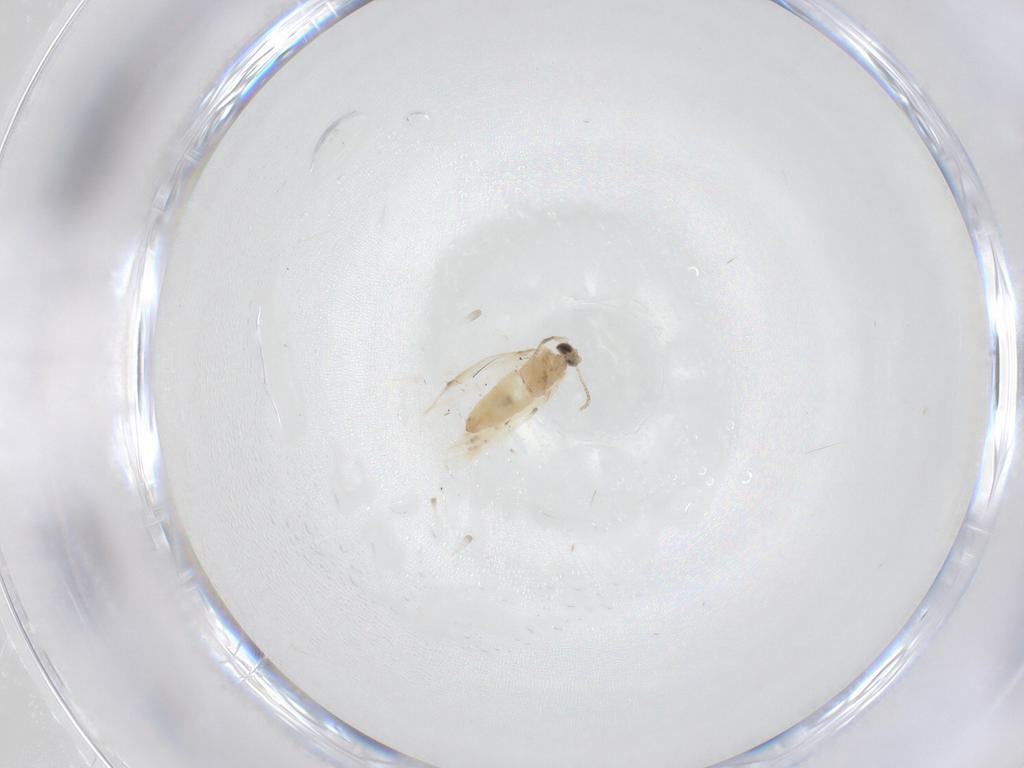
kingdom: Animalia
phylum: Arthropoda
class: Insecta
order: Lepidoptera
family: Crambidae
